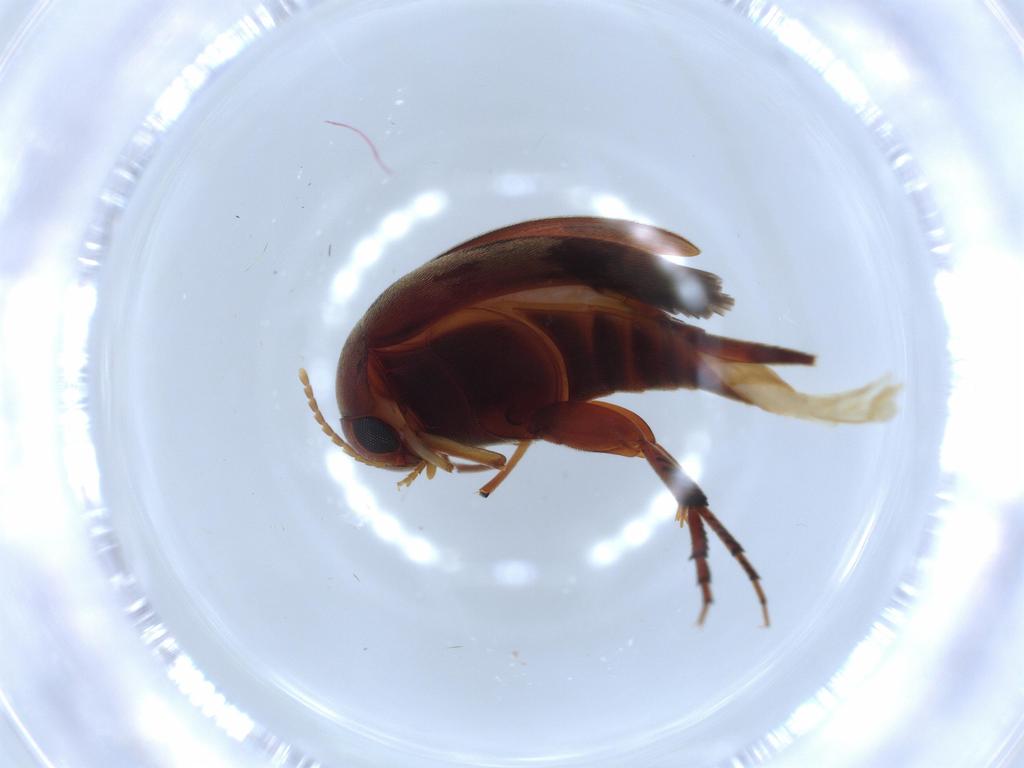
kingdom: Animalia
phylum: Arthropoda
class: Insecta
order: Coleoptera
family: Mordellidae
